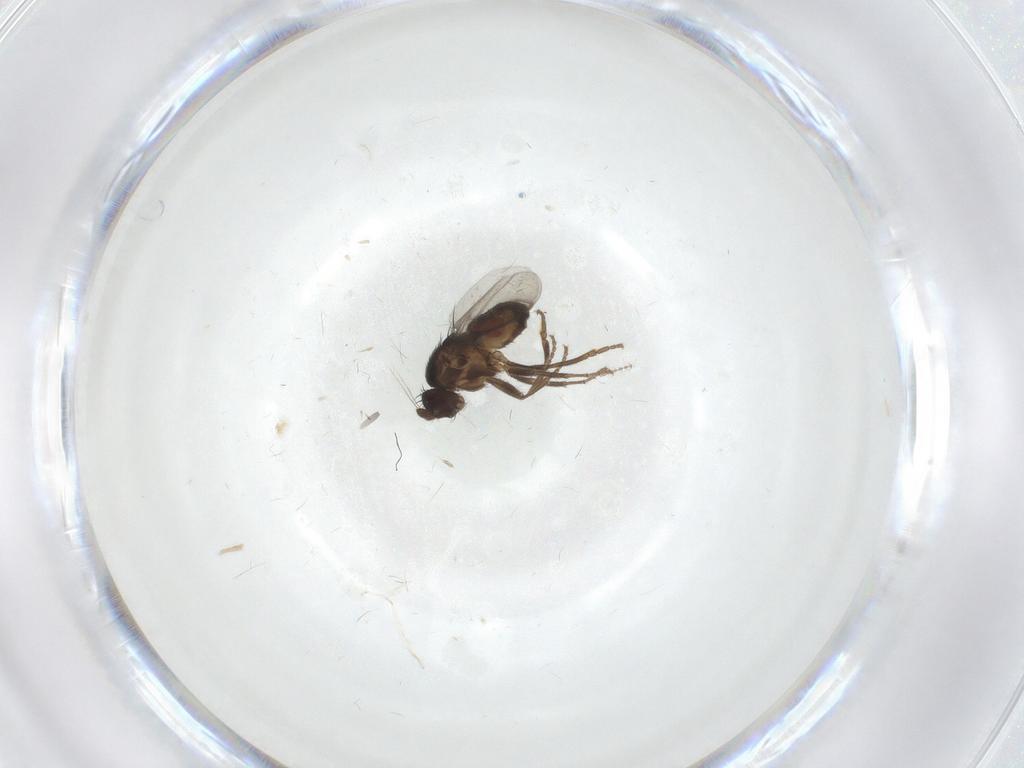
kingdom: Animalia
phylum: Arthropoda
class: Insecta
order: Diptera
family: Sphaeroceridae
